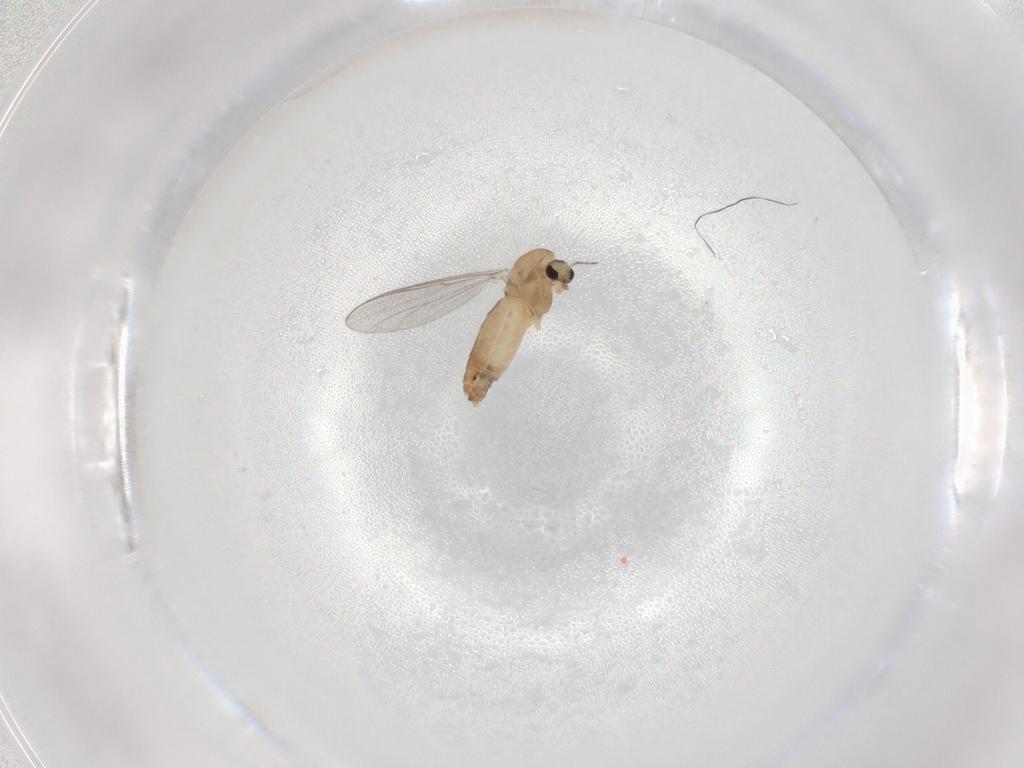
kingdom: Animalia
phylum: Arthropoda
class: Insecta
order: Diptera
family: Chironomidae
